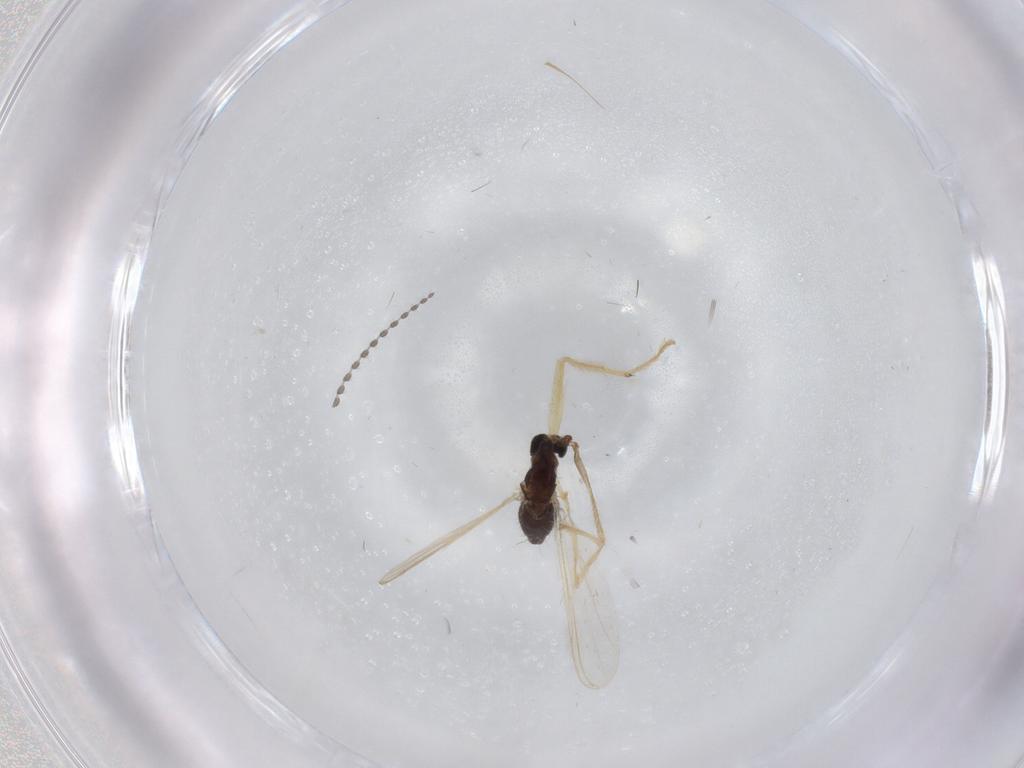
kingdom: Animalia
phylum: Arthropoda
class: Insecta
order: Diptera
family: Chironomidae
